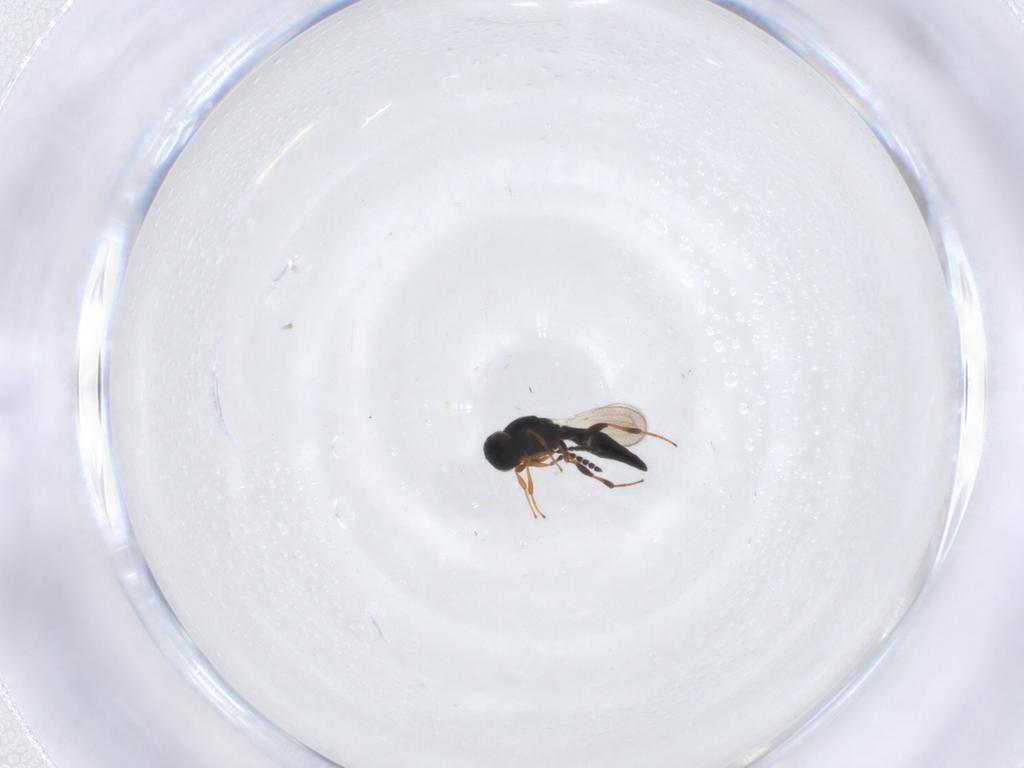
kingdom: Animalia
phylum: Arthropoda
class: Insecta
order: Hymenoptera
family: Platygastridae
